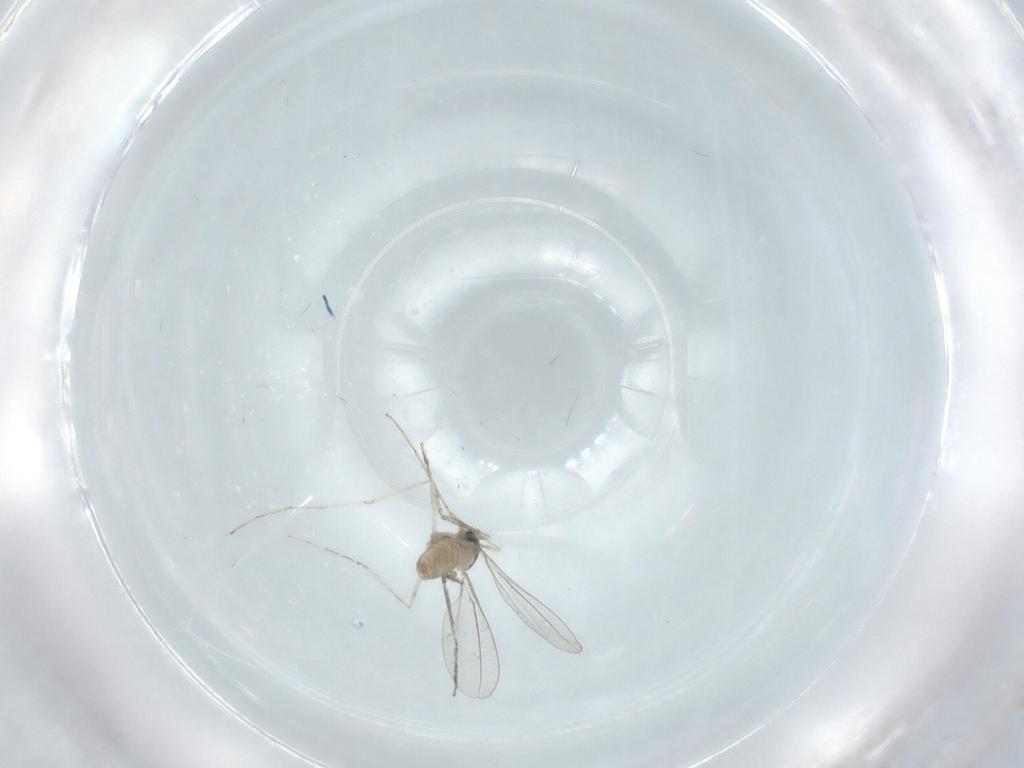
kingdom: Animalia
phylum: Arthropoda
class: Insecta
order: Diptera
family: Cecidomyiidae
